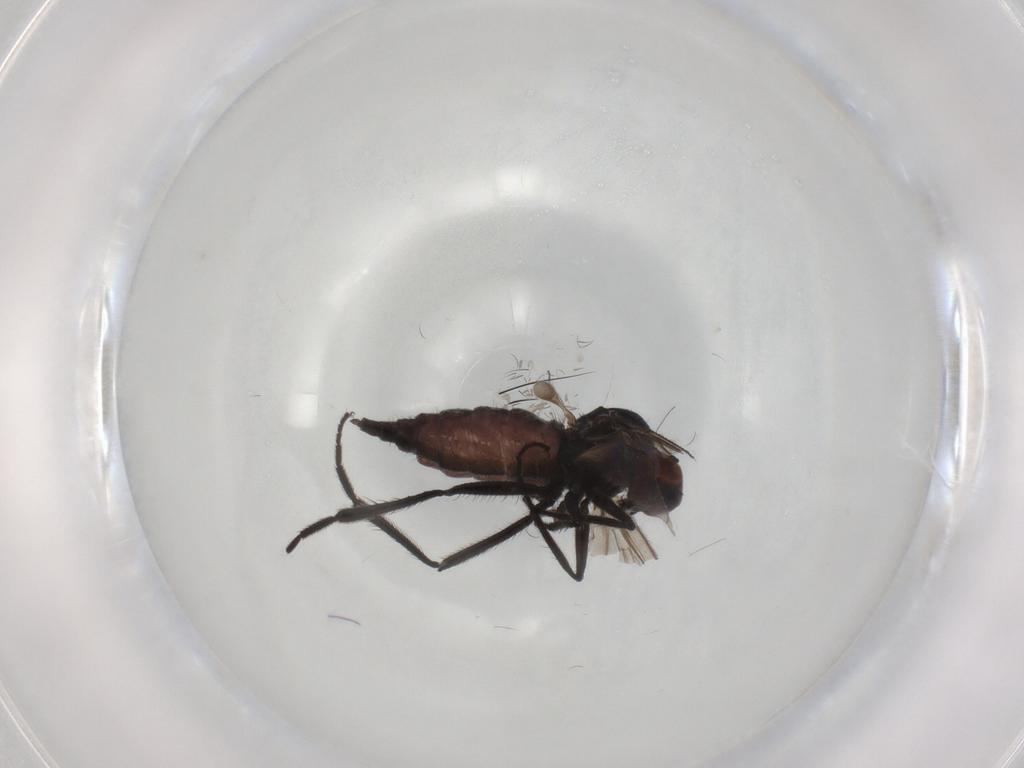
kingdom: Animalia
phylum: Arthropoda
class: Insecta
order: Diptera
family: Sciaridae
